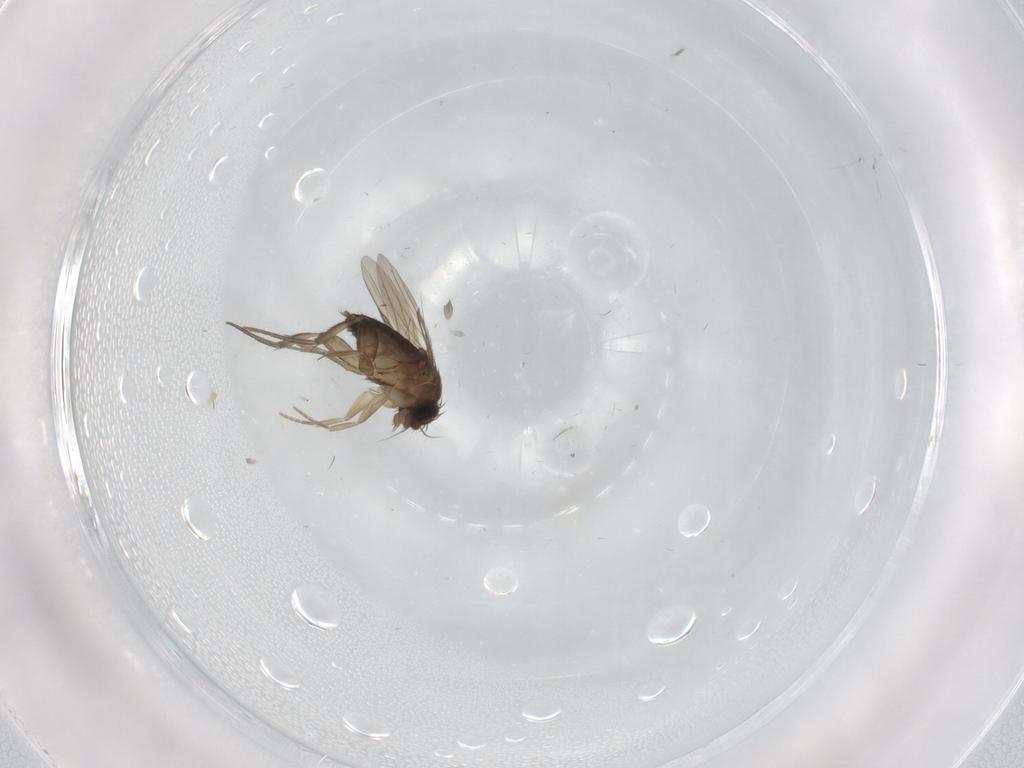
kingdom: Animalia
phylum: Arthropoda
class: Insecta
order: Diptera
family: Phoridae
